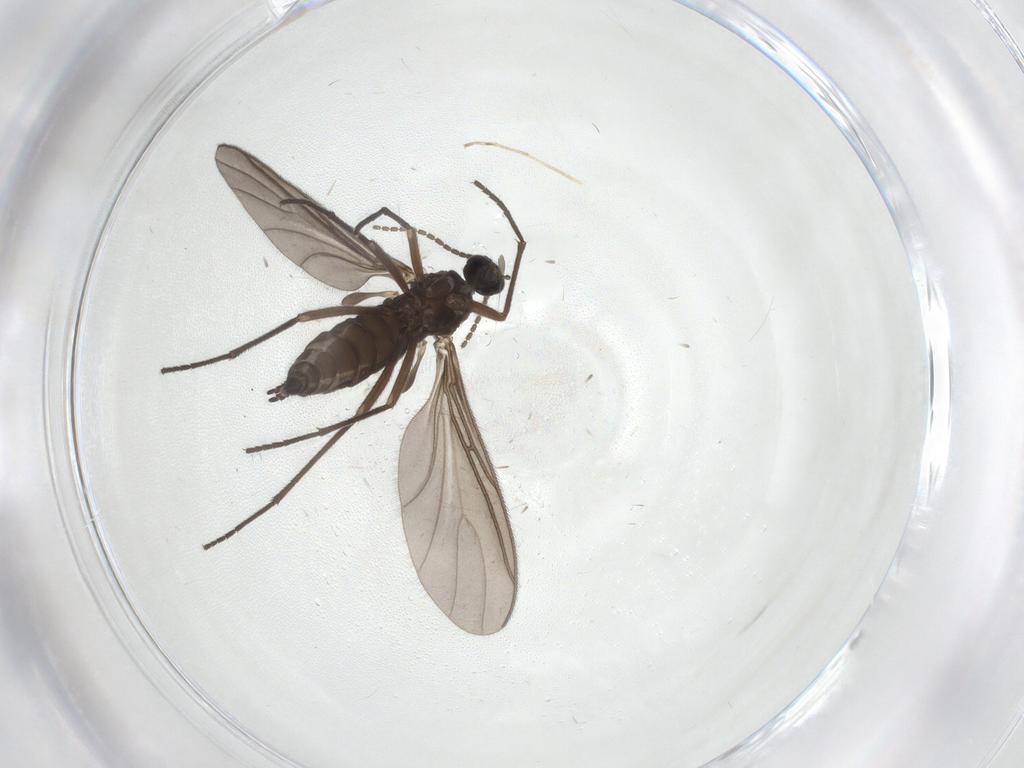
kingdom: Animalia
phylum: Arthropoda
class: Insecta
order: Diptera
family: Sciaridae
